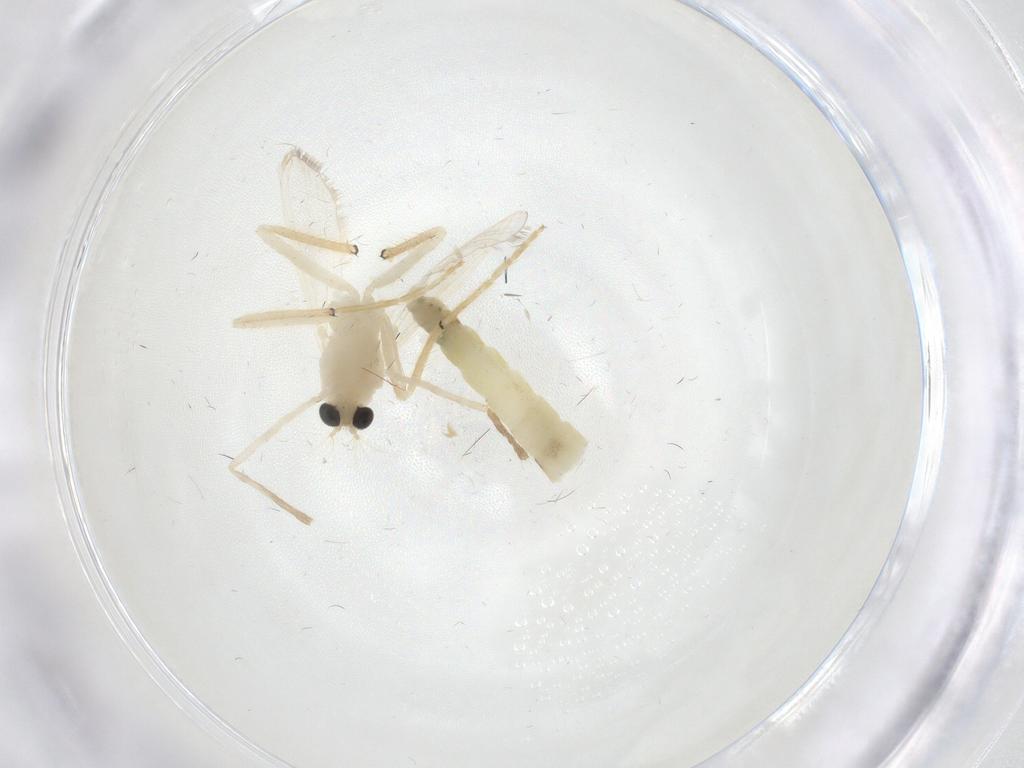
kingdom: Animalia
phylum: Arthropoda
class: Insecta
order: Diptera
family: Chironomidae
